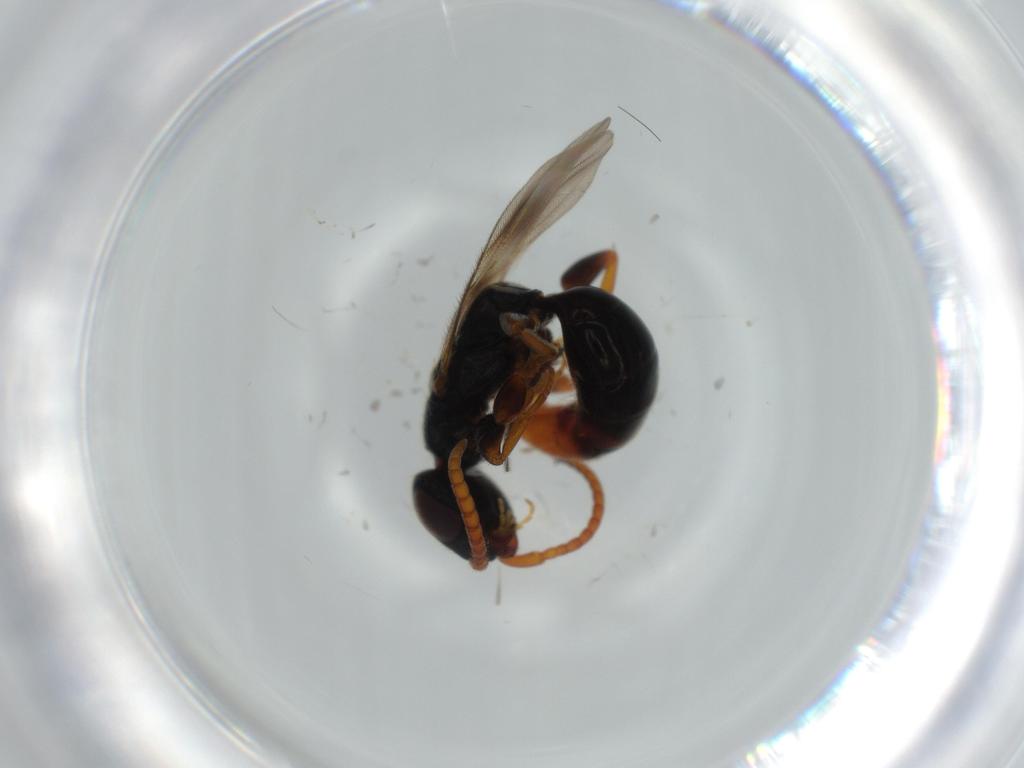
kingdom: Animalia
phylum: Arthropoda
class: Insecta
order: Hymenoptera
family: Bethylidae
